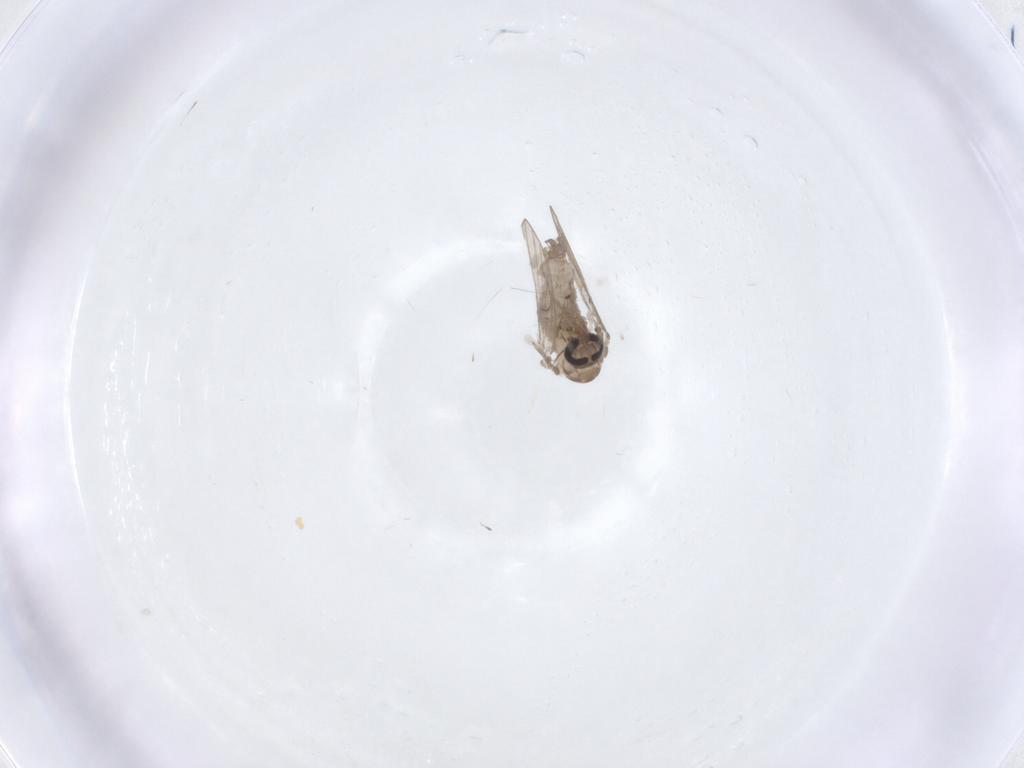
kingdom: Animalia
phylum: Arthropoda
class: Insecta
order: Diptera
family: Psychodidae
